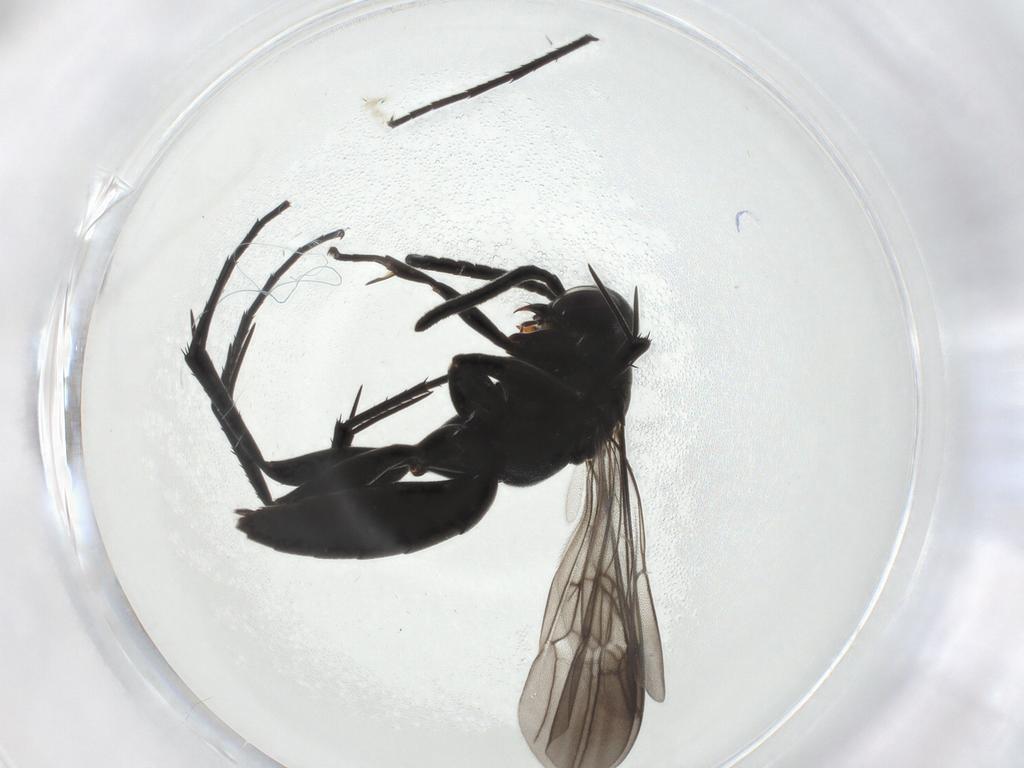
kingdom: Animalia
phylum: Arthropoda
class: Insecta
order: Hymenoptera
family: Pompilidae
